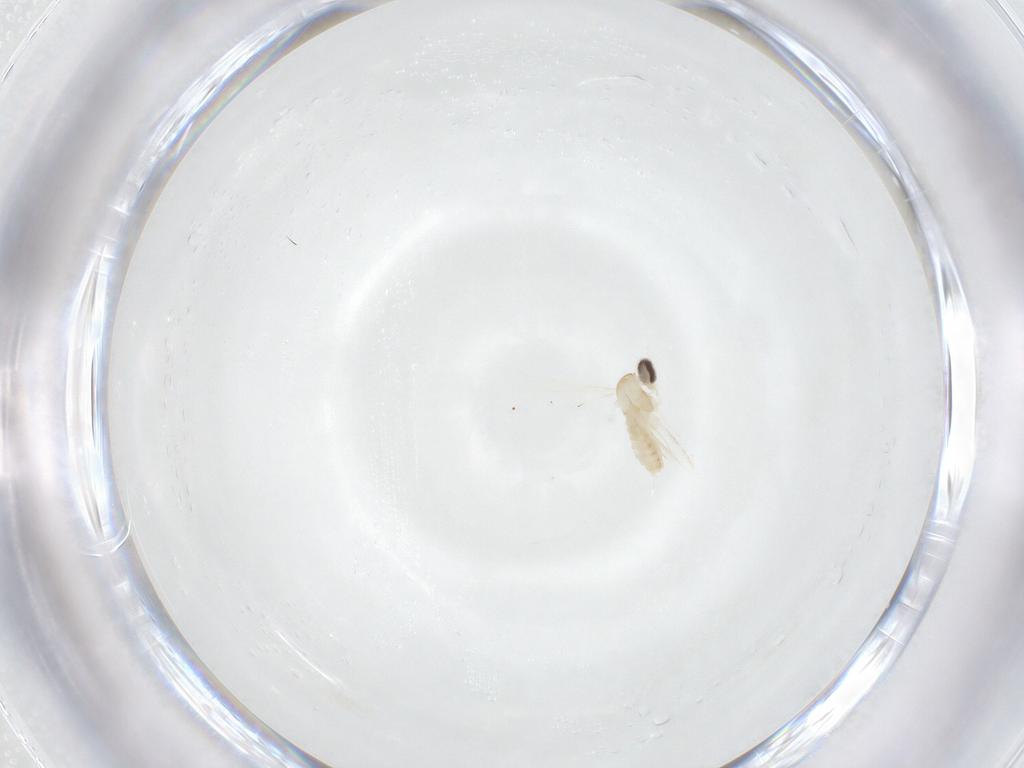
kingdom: Animalia
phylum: Arthropoda
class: Insecta
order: Diptera
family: Cecidomyiidae
